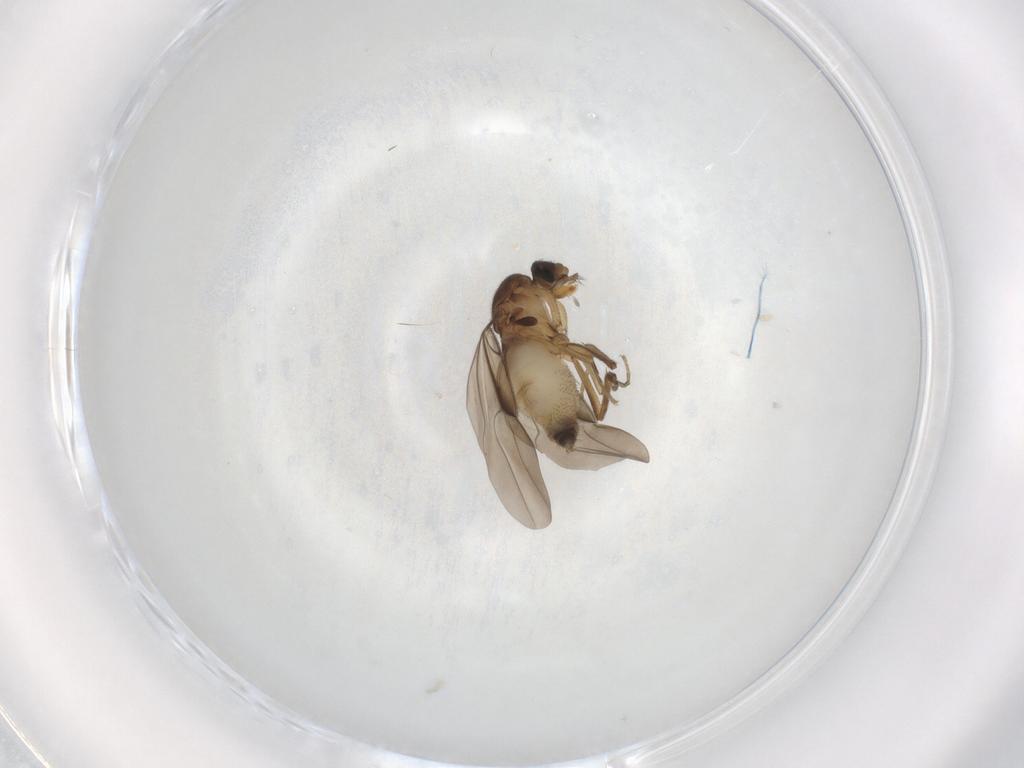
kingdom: Animalia
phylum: Arthropoda
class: Insecta
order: Diptera
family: Phoridae
